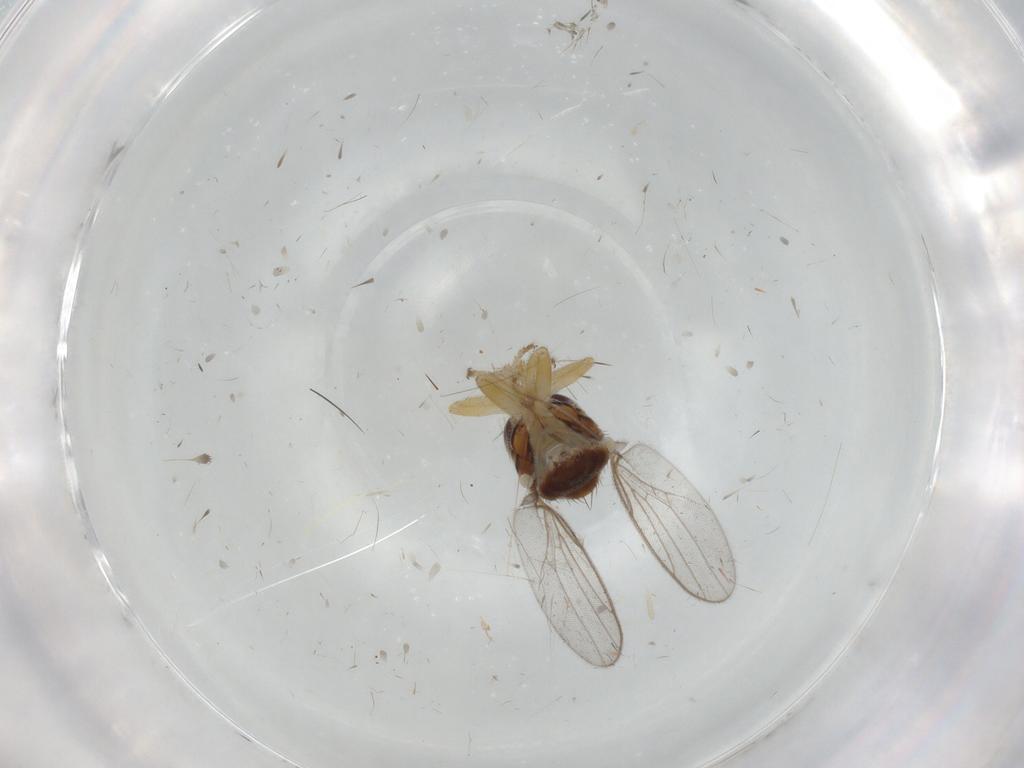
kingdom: Animalia
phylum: Arthropoda
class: Insecta
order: Diptera
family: Chloropidae
